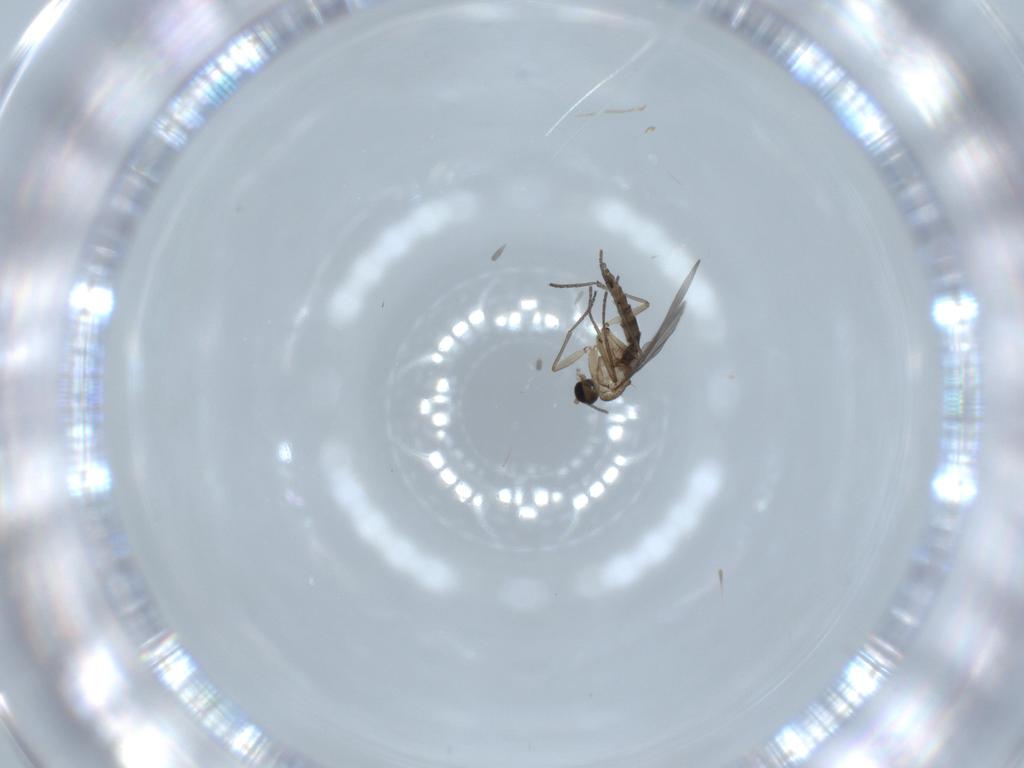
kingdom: Animalia
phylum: Arthropoda
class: Insecta
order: Diptera
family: Sciaridae
